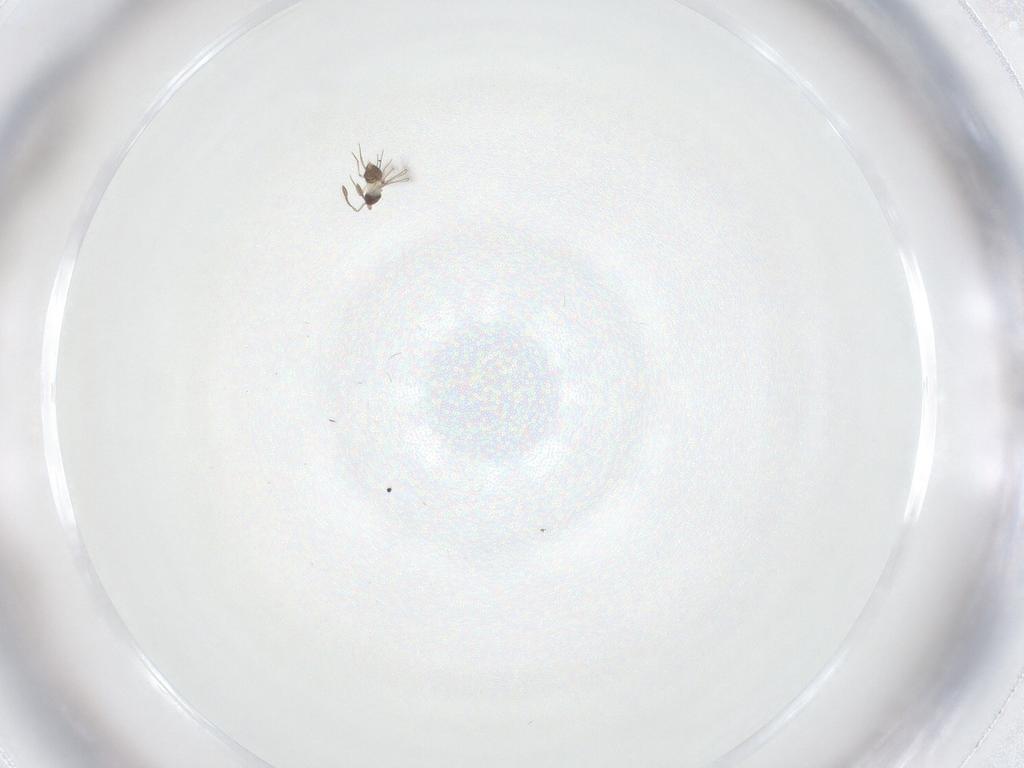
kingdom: Animalia
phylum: Arthropoda
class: Insecta
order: Hymenoptera
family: Mymaridae
